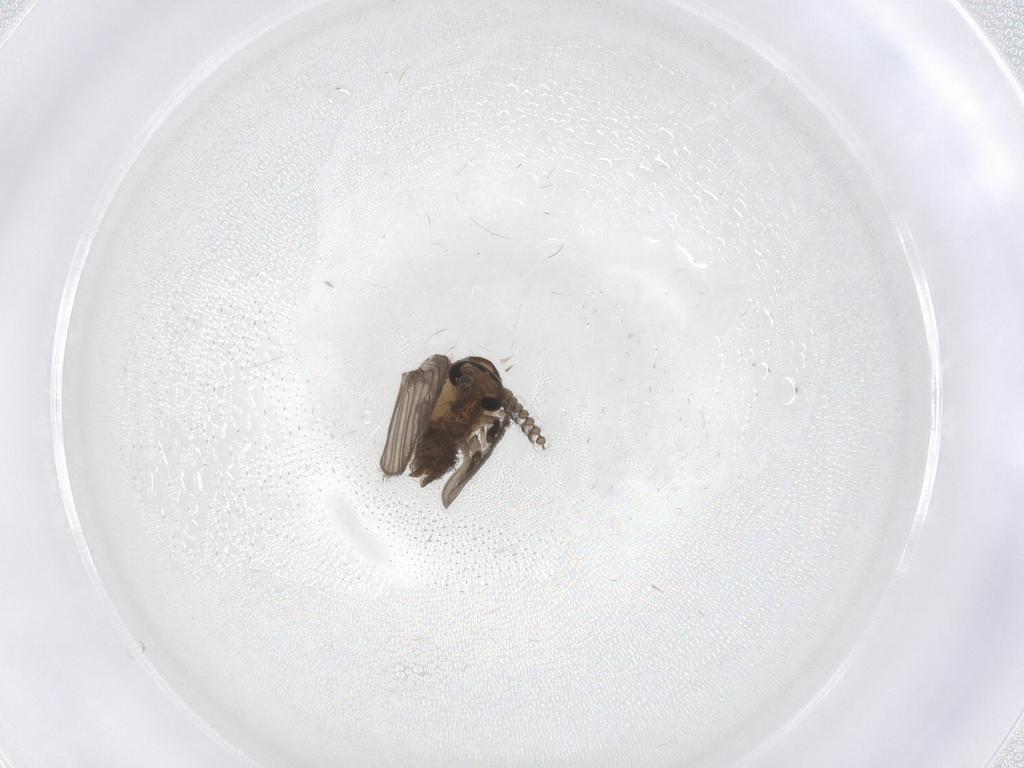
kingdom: Animalia
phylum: Arthropoda
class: Insecta
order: Diptera
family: Psychodidae
